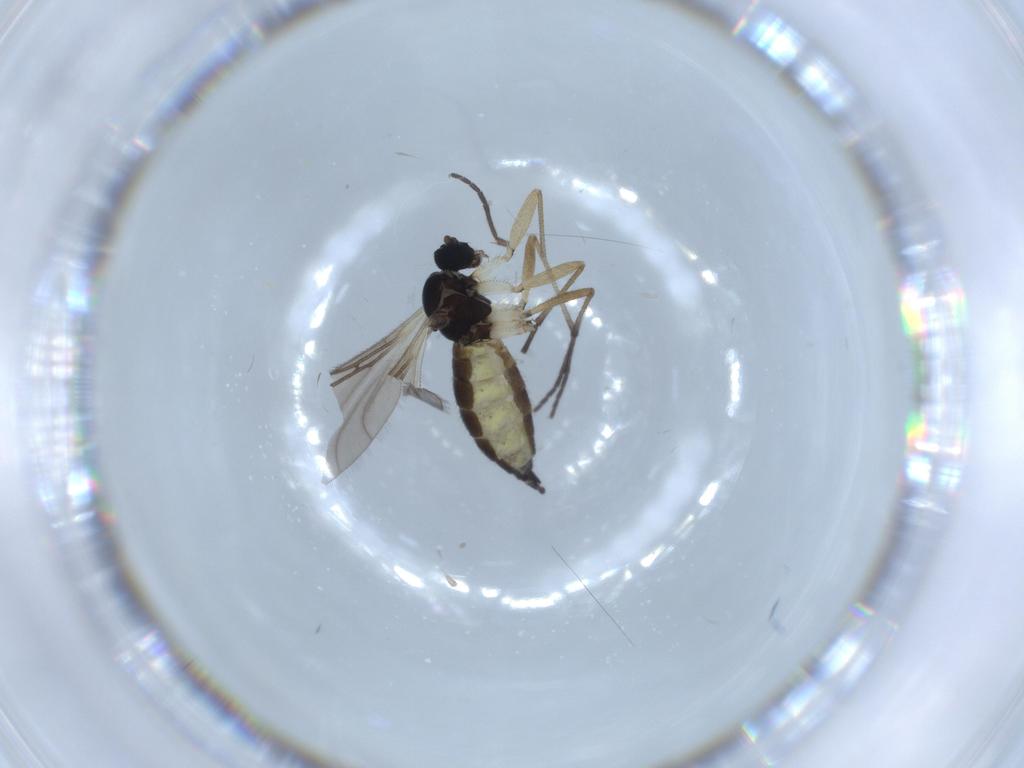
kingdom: Animalia
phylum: Arthropoda
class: Insecta
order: Diptera
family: Sciaridae
